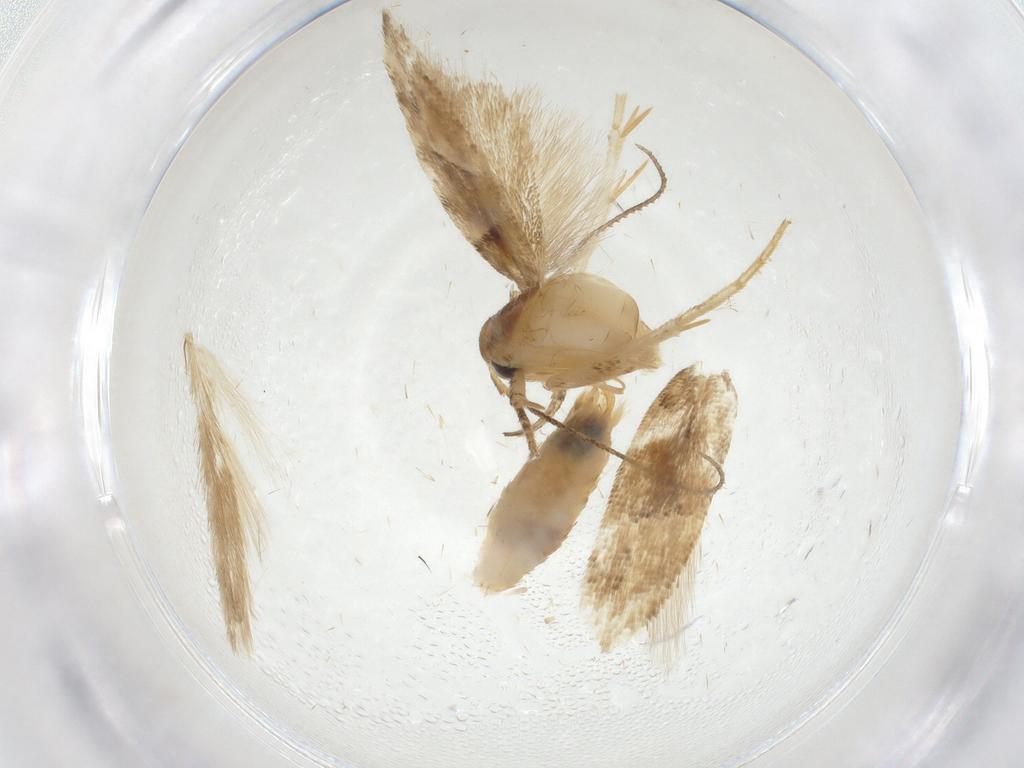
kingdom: Animalia
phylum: Arthropoda
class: Insecta
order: Lepidoptera
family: Gelechiidae
